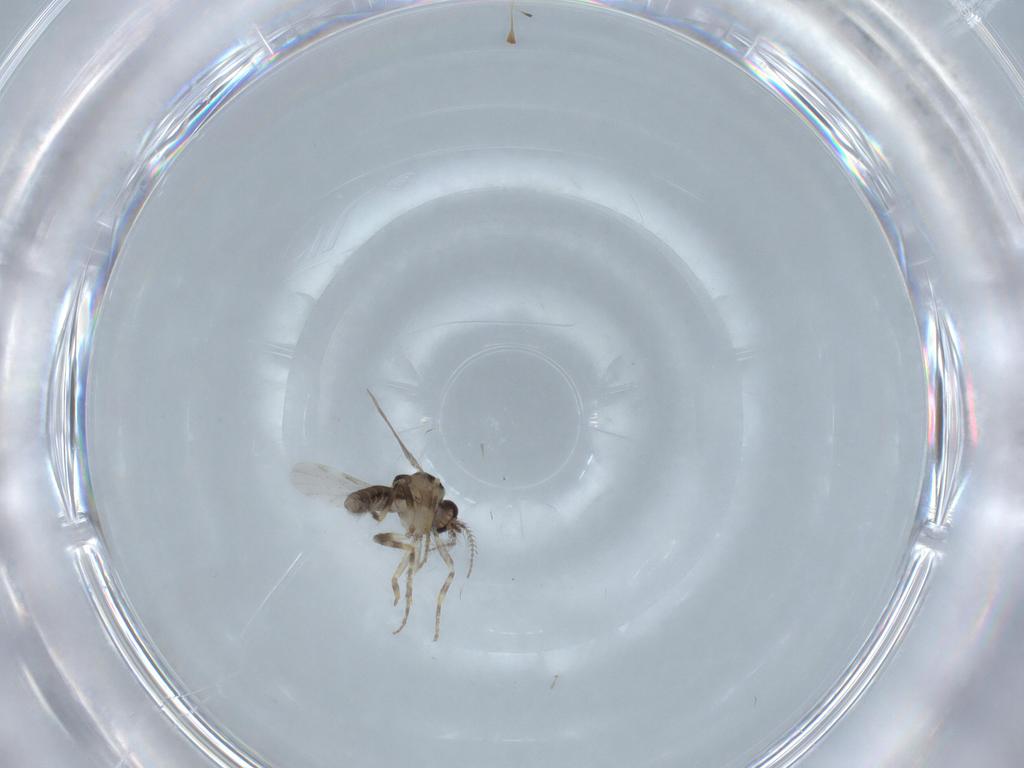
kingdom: Animalia
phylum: Arthropoda
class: Insecta
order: Diptera
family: Ceratopogonidae
